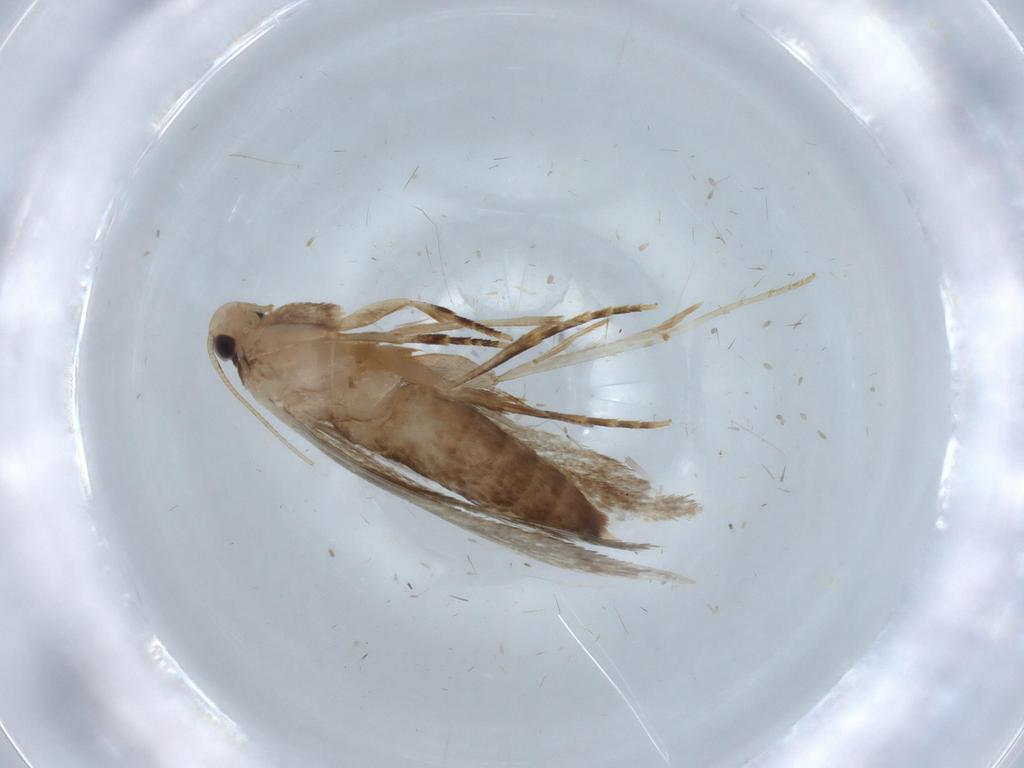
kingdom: Animalia
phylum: Arthropoda
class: Insecta
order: Lepidoptera
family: Tineidae
